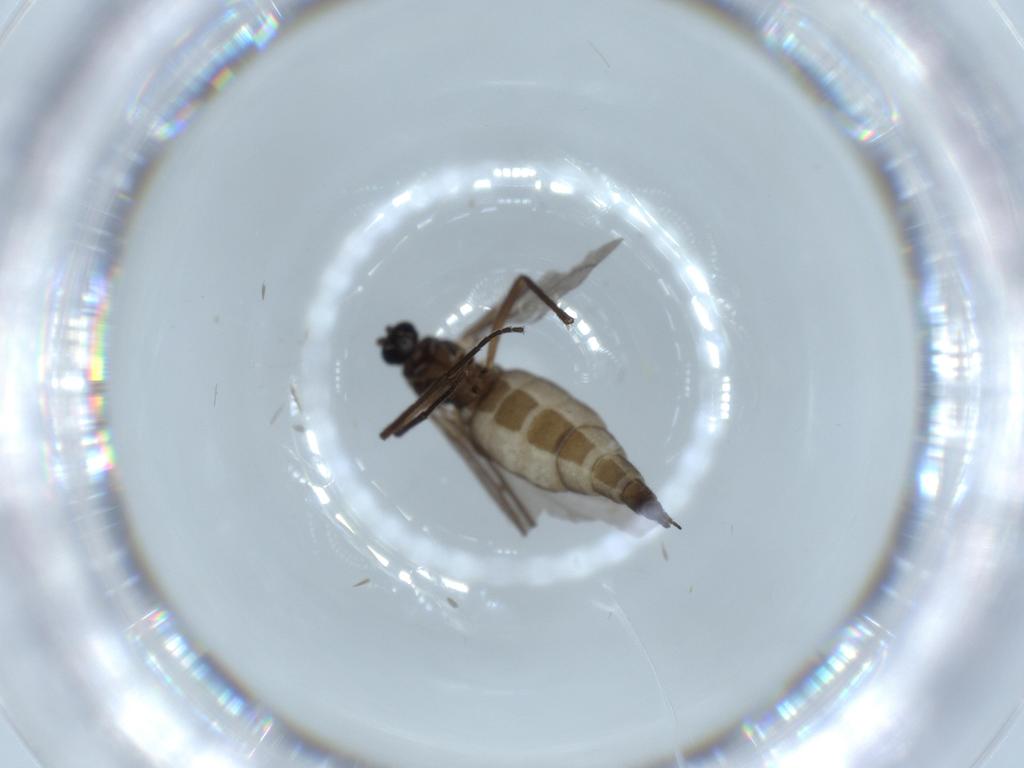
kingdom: Animalia
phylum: Arthropoda
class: Insecta
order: Diptera
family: Cecidomyiidae
